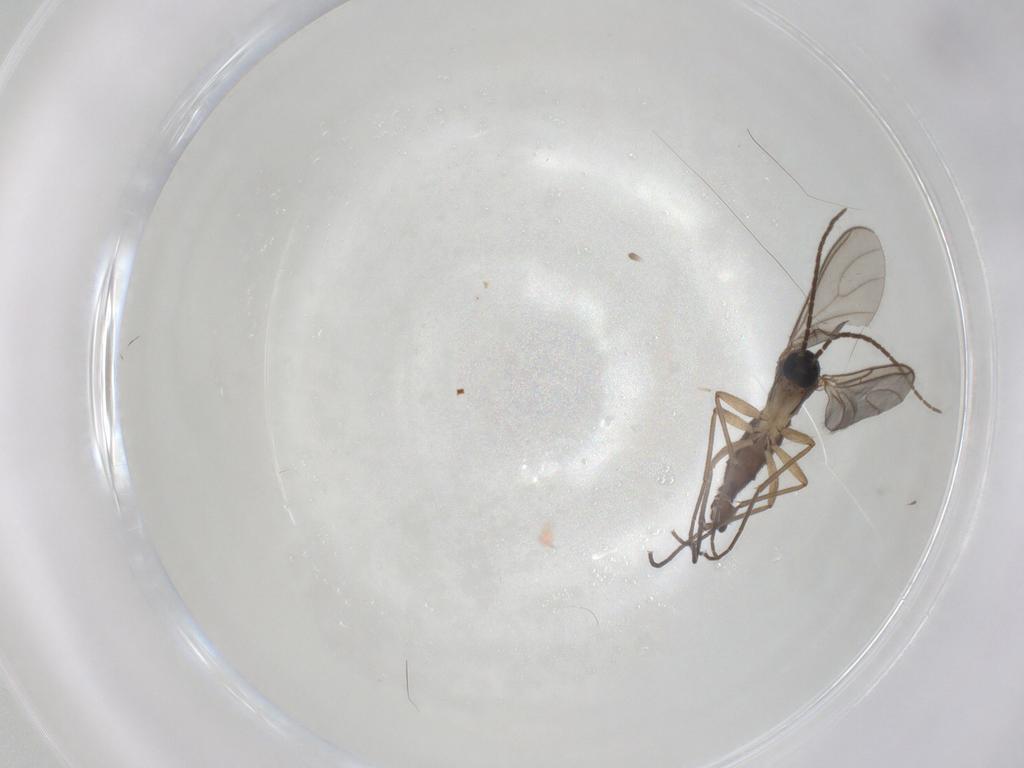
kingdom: Animalia
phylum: Arthropoda
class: Insecta
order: Diptera
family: Sciaridae
